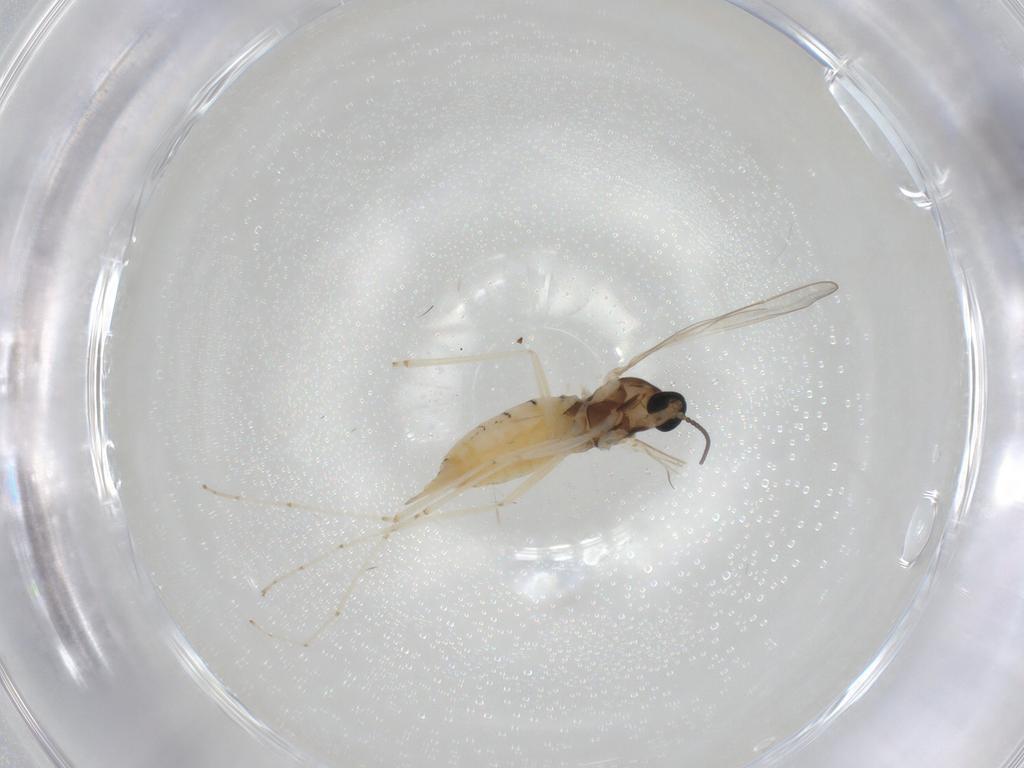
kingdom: Animalia
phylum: Arthropoda
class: Insecta
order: Diptera
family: Cecidomyiidae
